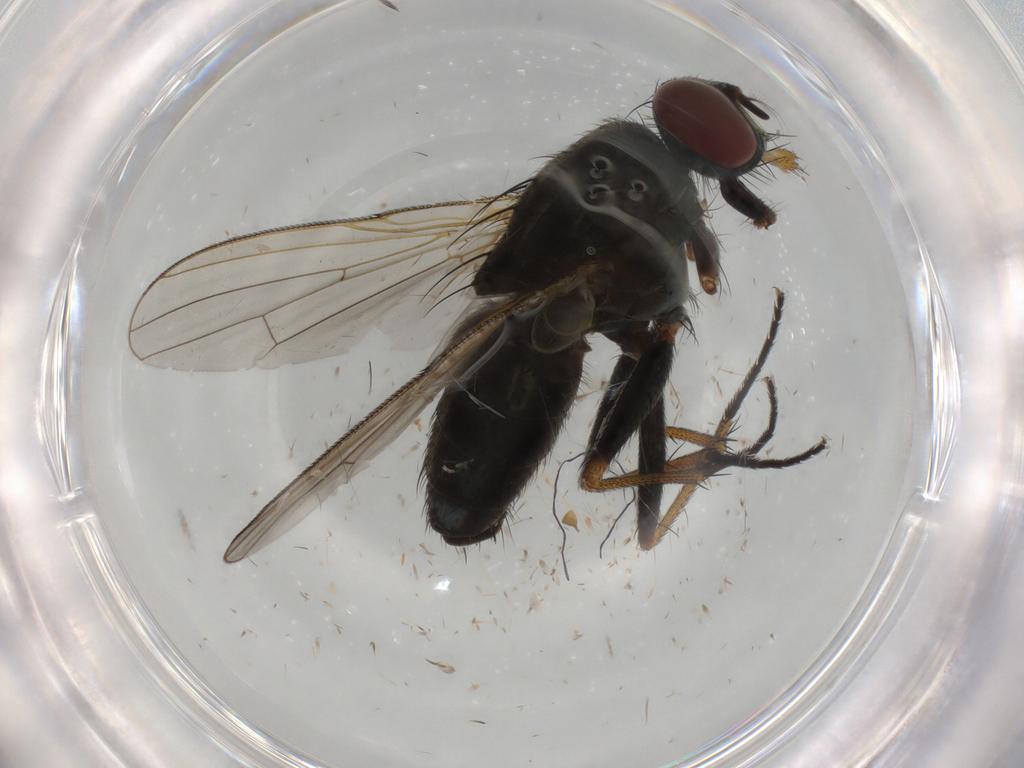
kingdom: Animalia
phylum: Arthropoda
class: Insecta
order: Diptera
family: Muscidae
